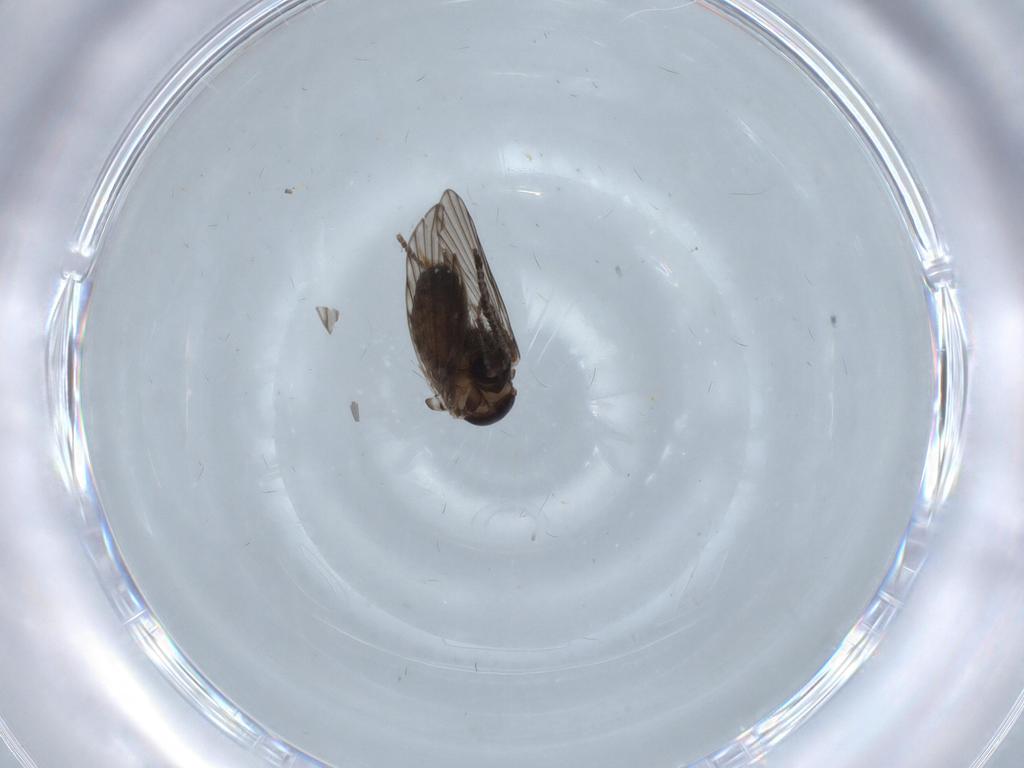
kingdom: Animalia
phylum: Arthropoda
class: Insecta
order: Diptera
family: Psychodidae
